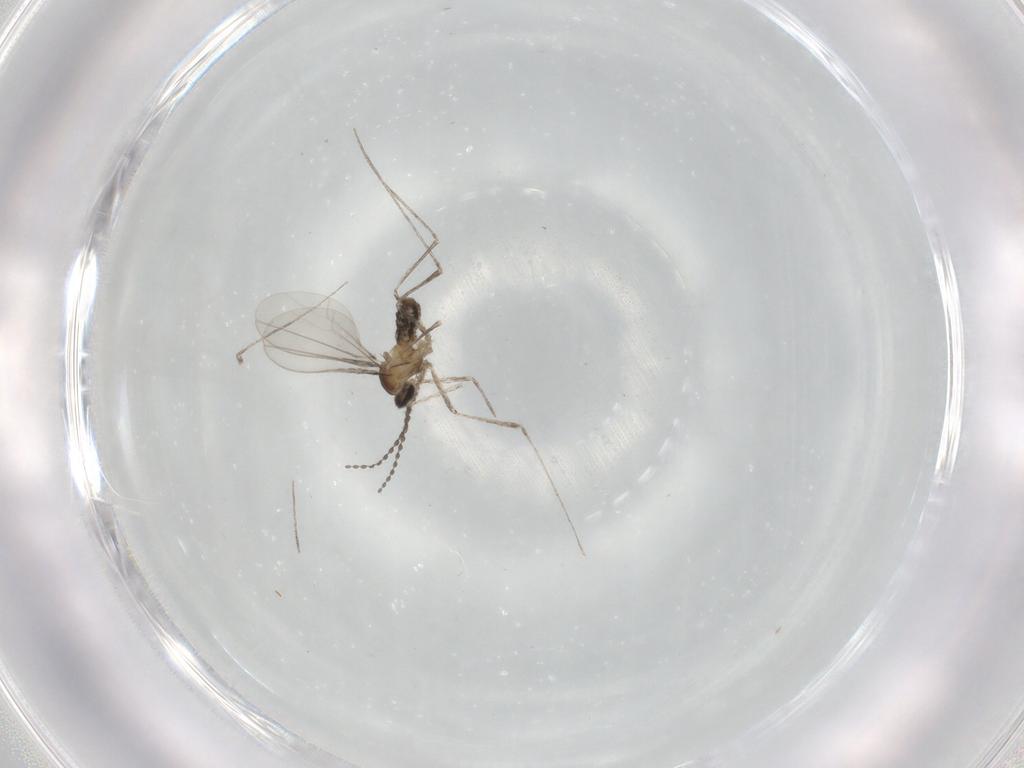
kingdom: Animalia
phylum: Arthropoda
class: Insecta
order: Diptera
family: Cecidomyiidae
